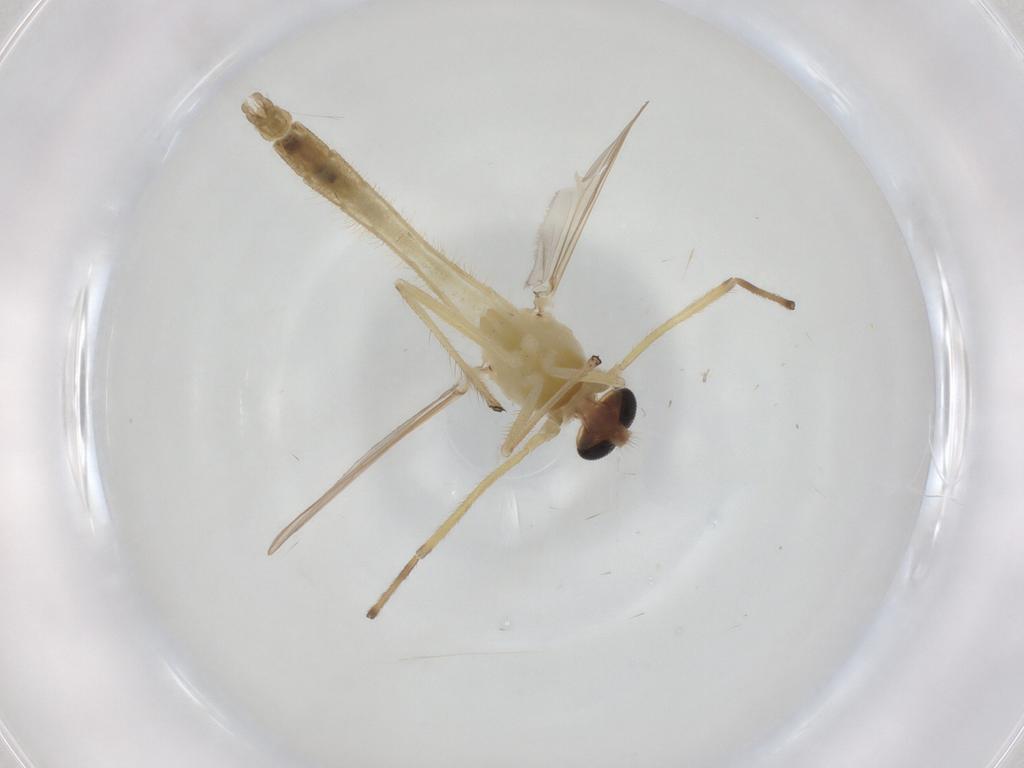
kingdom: Animalia
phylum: Arthropoda
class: Insecta
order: Diptera
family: Chironomidae
